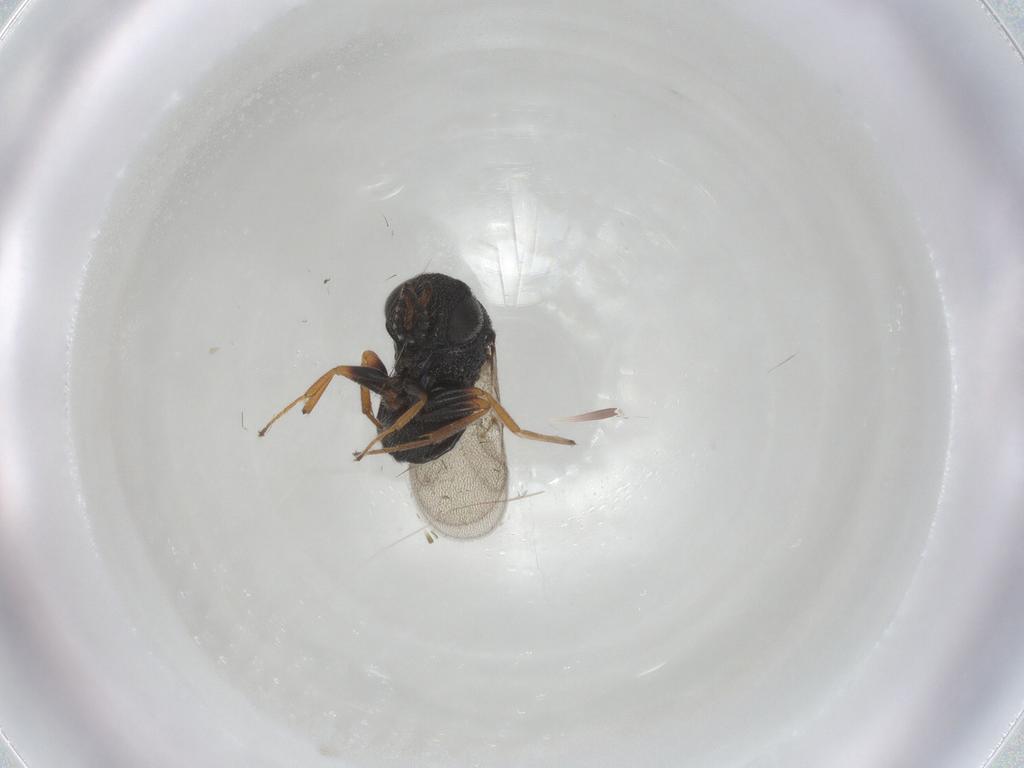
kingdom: Animalia
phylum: Arthropoda
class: Insecta
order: Hymenoptera
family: Scelionidae
